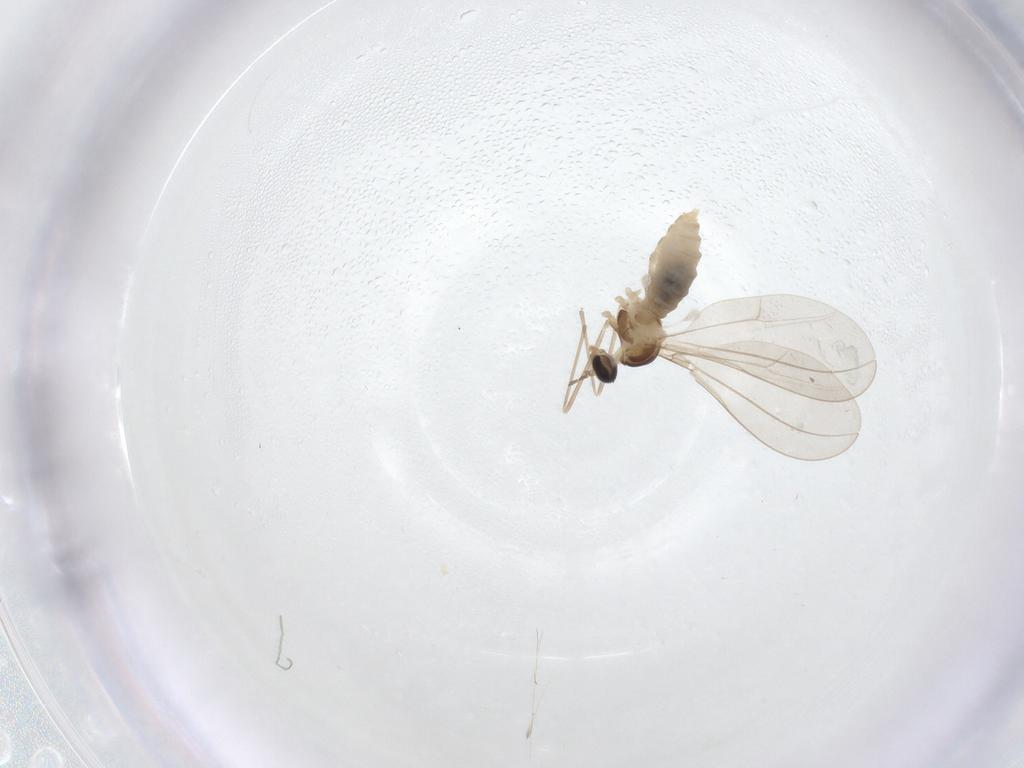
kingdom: Animalia
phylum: Arthropoda
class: Insecta
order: Diptera
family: Cecidomyiidae
